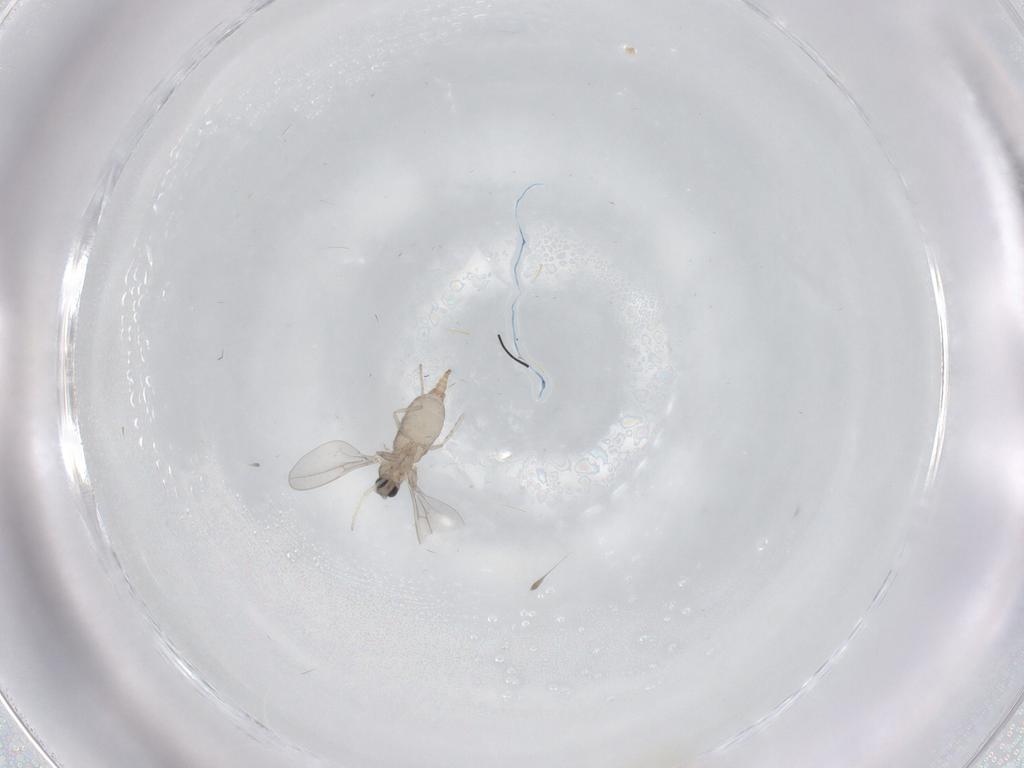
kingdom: Animalia
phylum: Arthropoda
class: Insecta
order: Diptera
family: Cecidomyiidae
